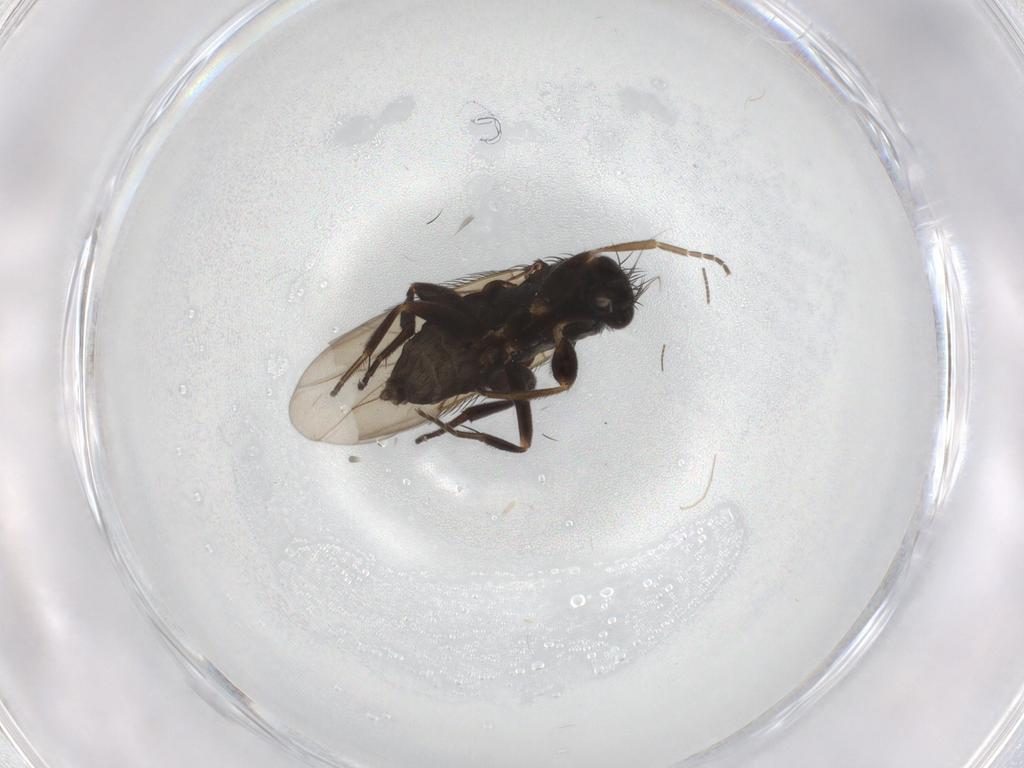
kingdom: Animalia
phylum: Arthropoda
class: Insecta
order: Diptera
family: Phoridae
